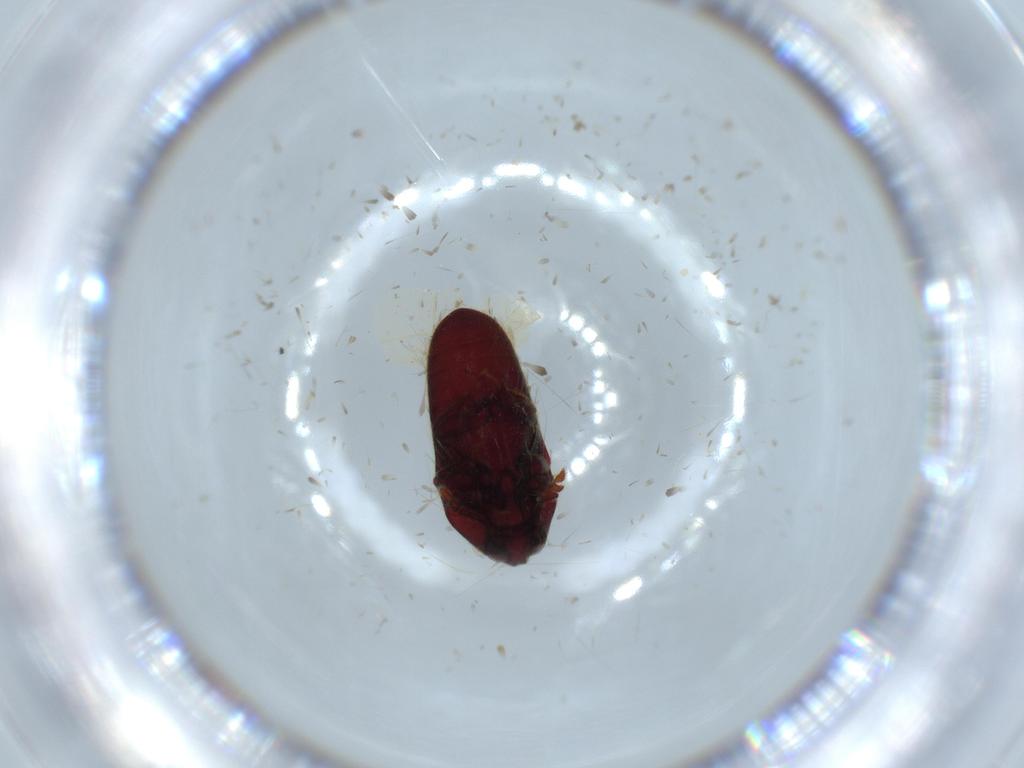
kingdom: Animalia
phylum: Arthropoda
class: Insecta
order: Coleoptera
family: Throscidae
